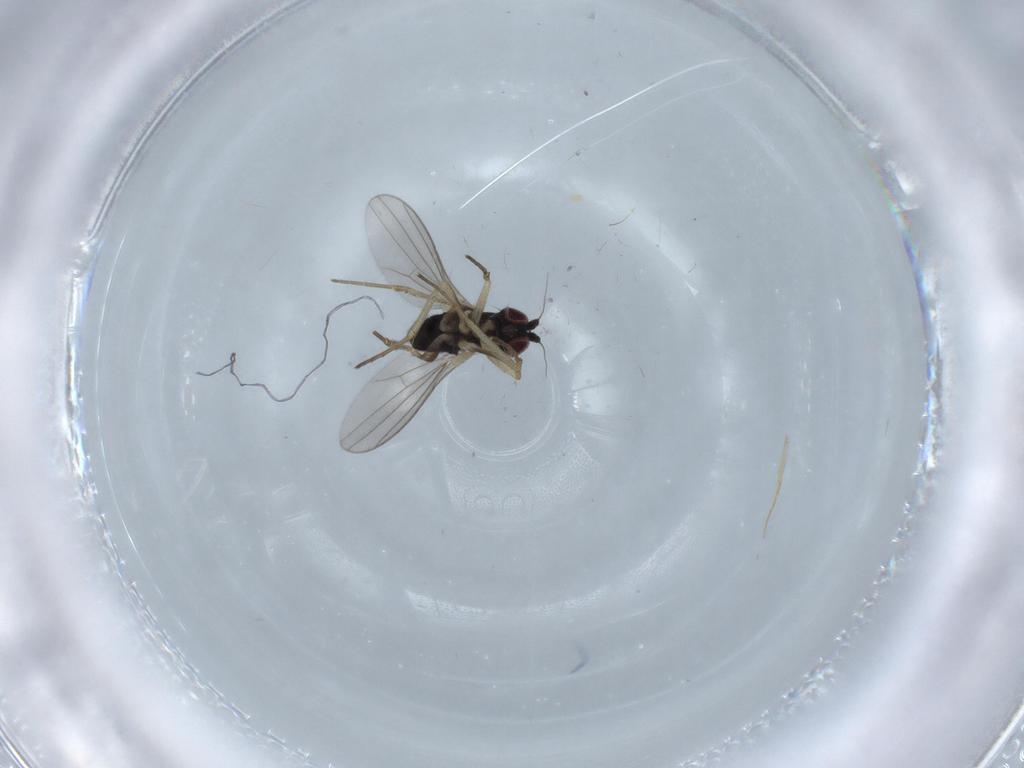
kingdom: Animalia
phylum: Arthropoda
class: Insecta
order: Diptera
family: Dolichopodidae
